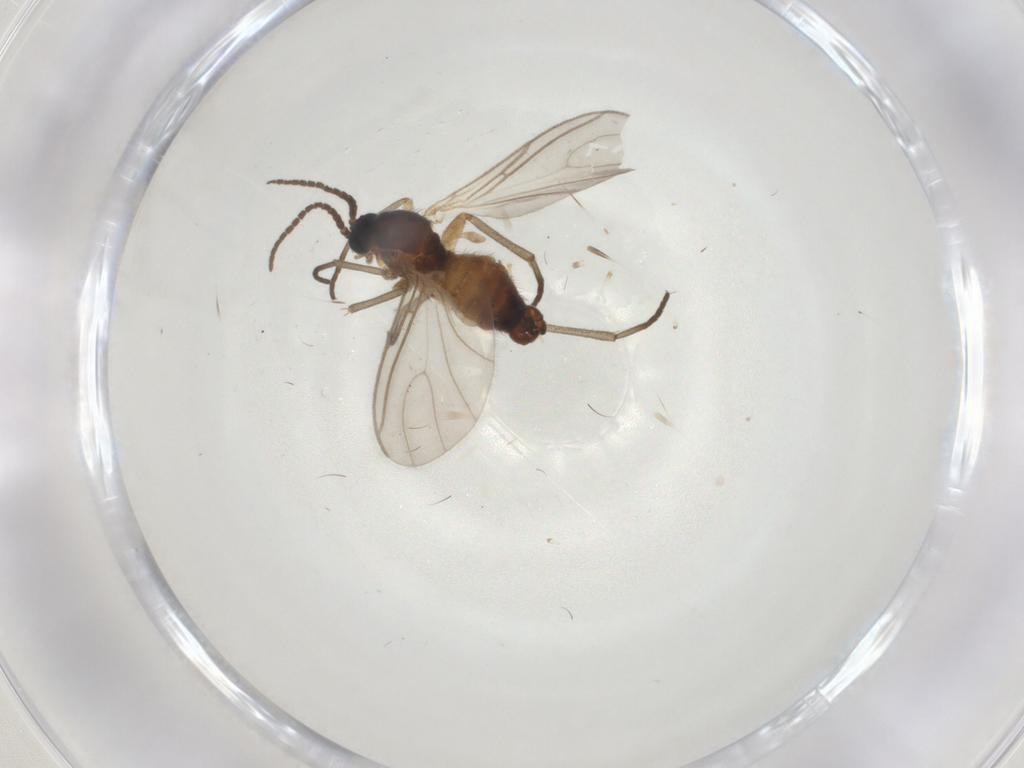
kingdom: Animalia
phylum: Arthropoda
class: Insecta
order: Diptera
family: Sciaridae
